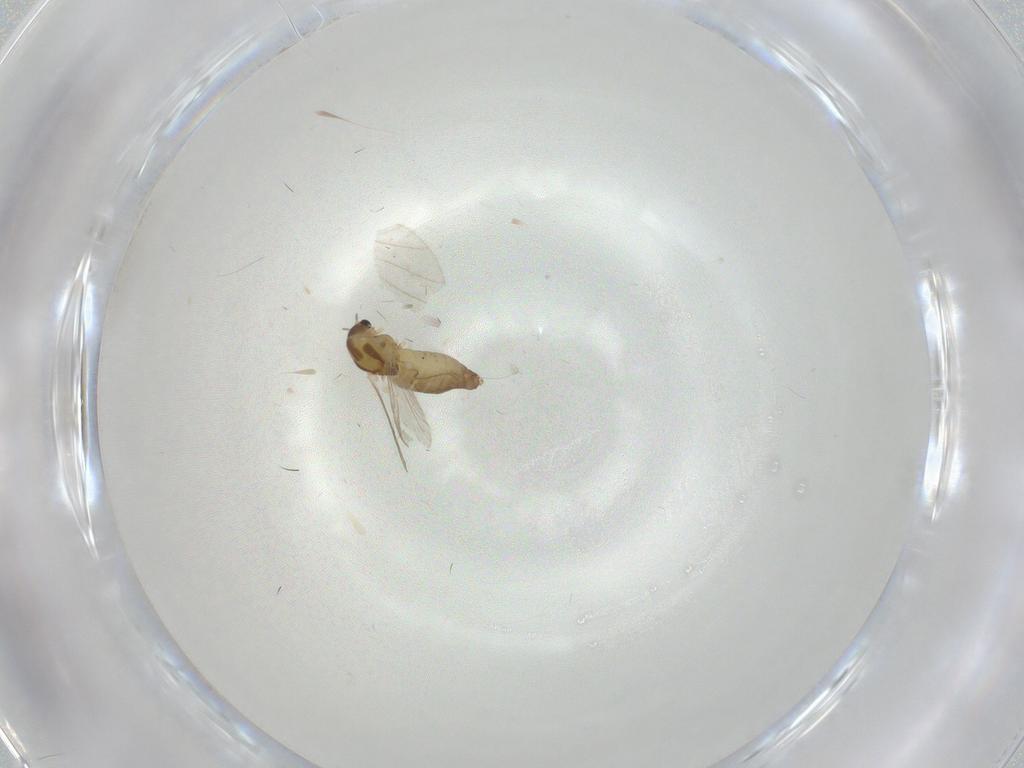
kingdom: Animalia
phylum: Arthropoda
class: Insecta
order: Diptera
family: Chironomidae
